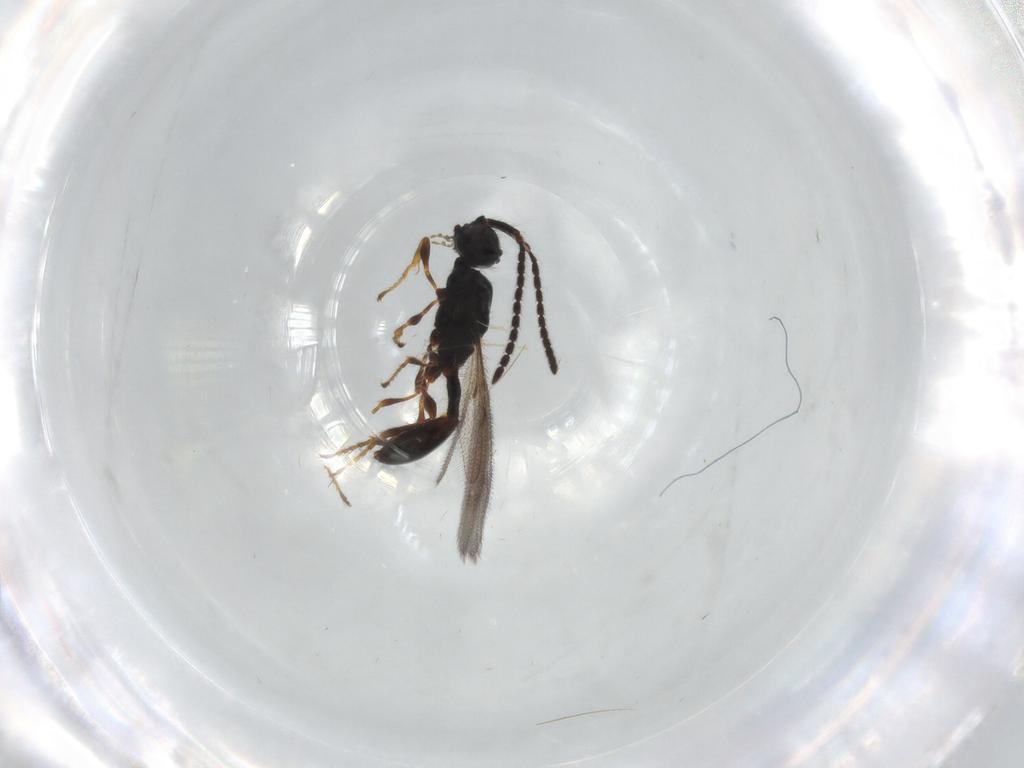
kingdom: Animalia
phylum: Arthropoda
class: Insecta
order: Hymenoptera
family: Diapriidae
